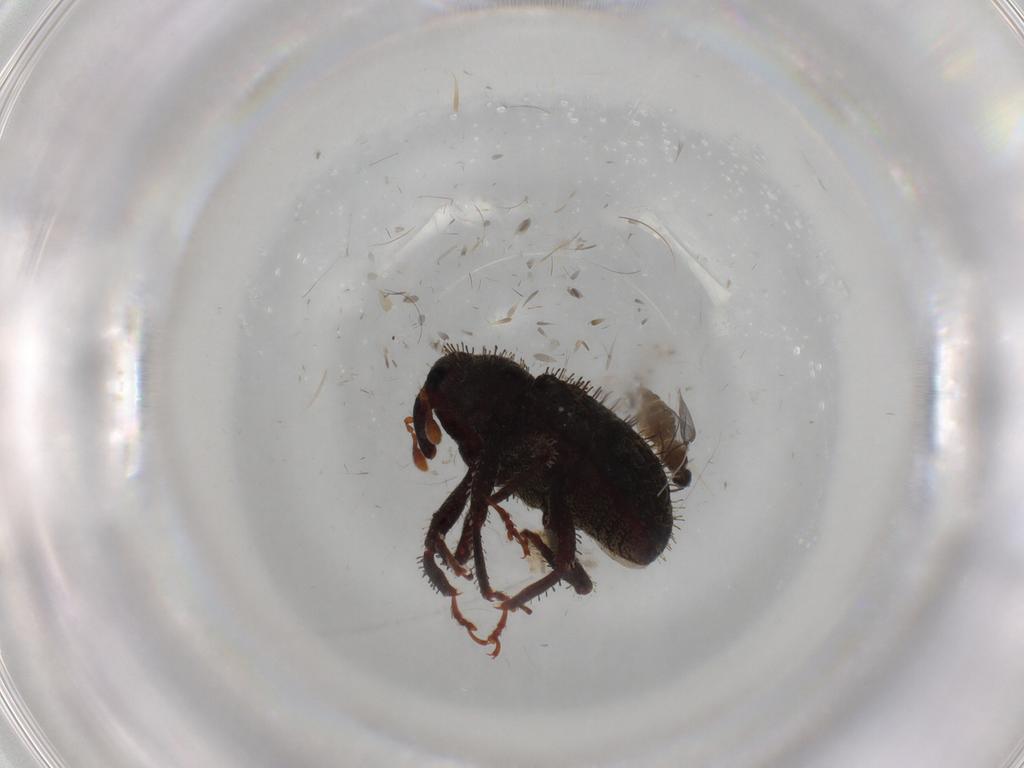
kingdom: Animalia
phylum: Arthropoda
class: Insecta
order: Diptera
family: Cecidomyiidae
